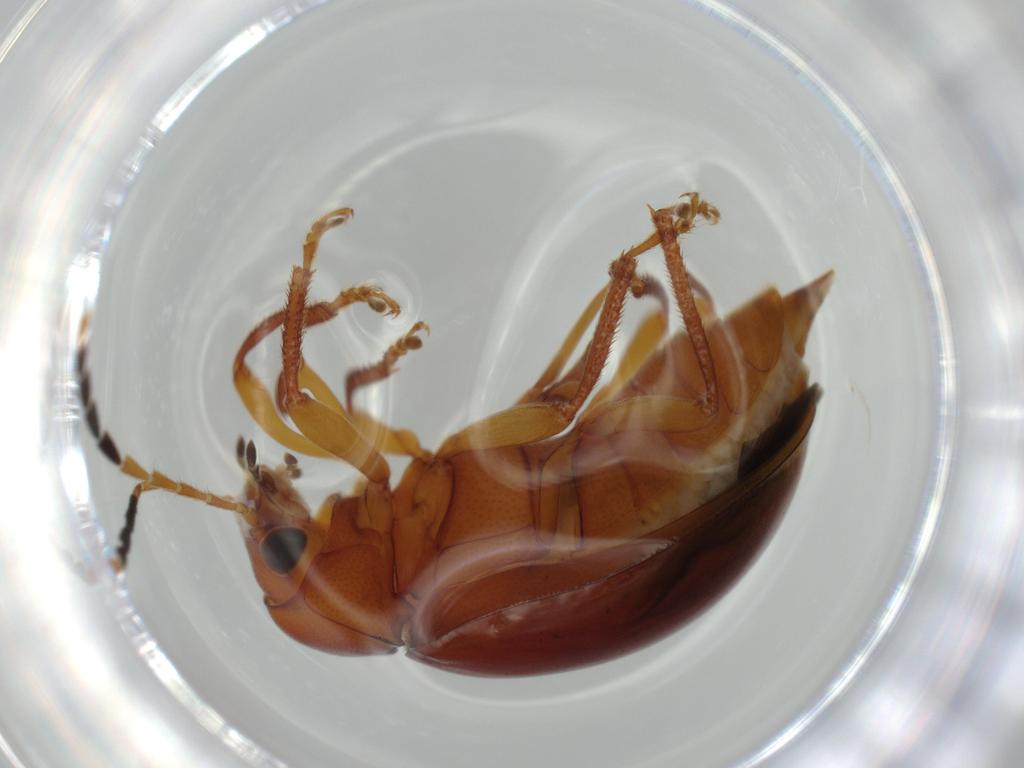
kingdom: Animalia
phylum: Arthropoda
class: Insecta
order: Coleoptera
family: Ptilodactylidae
